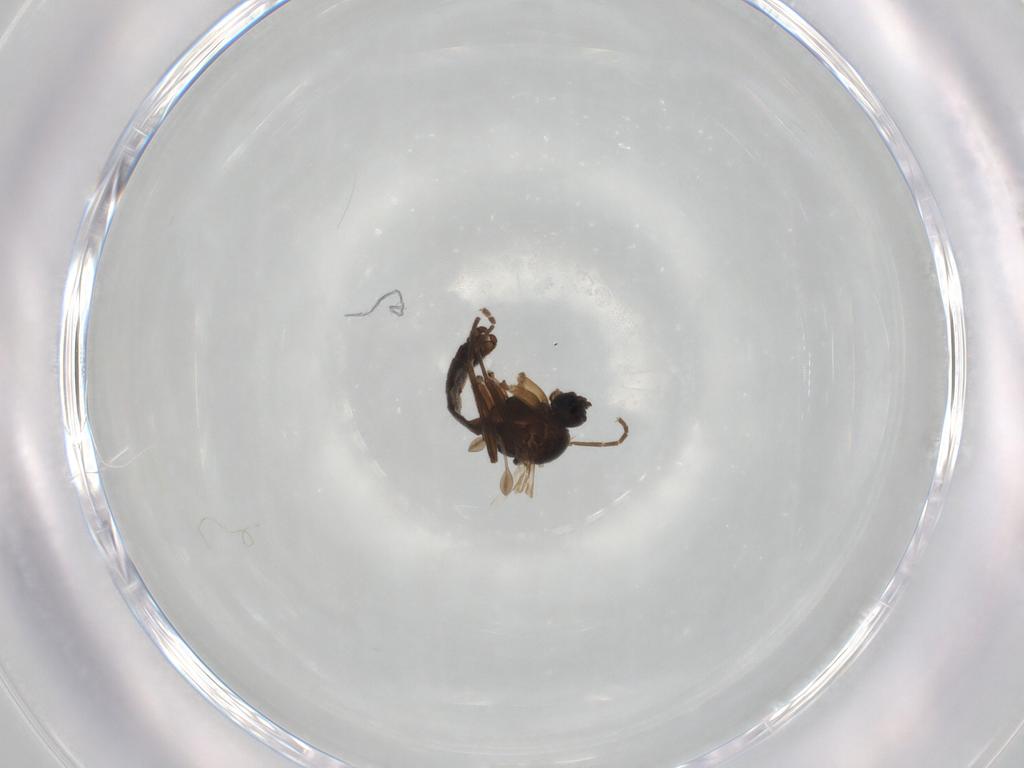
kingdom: Animalia
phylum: Arthropoda
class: Insecta
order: Diptera
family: Sciaridae
